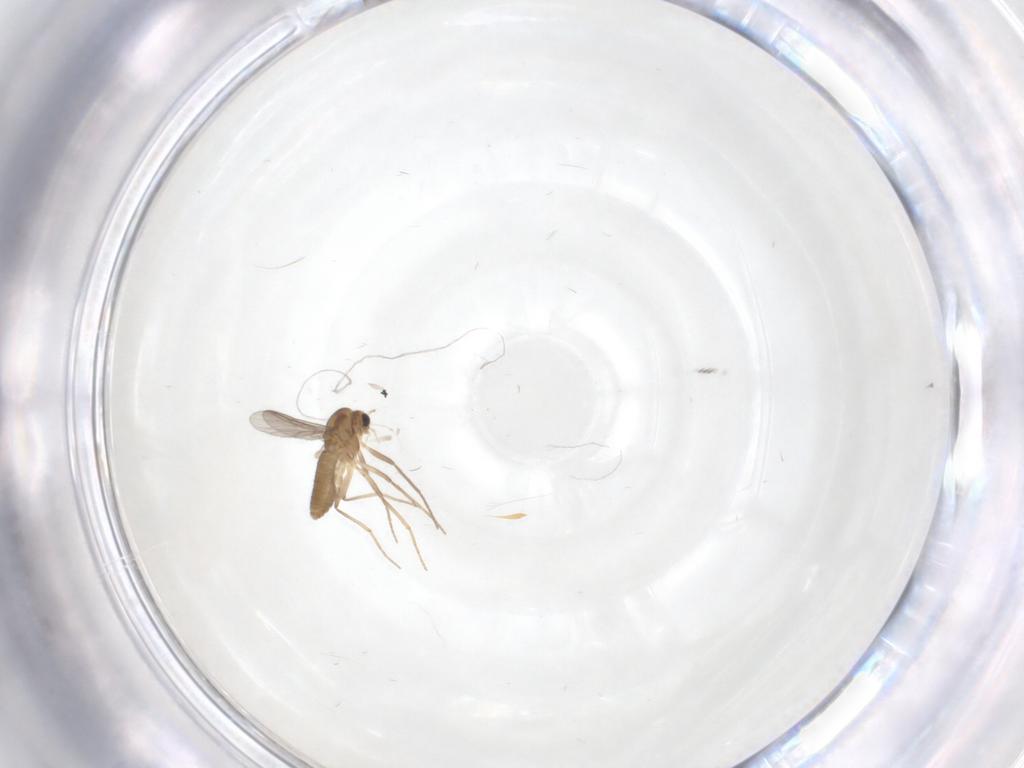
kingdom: Animalia
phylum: Arthropoda
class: Insecta
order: Diptera
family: Chironomidae
